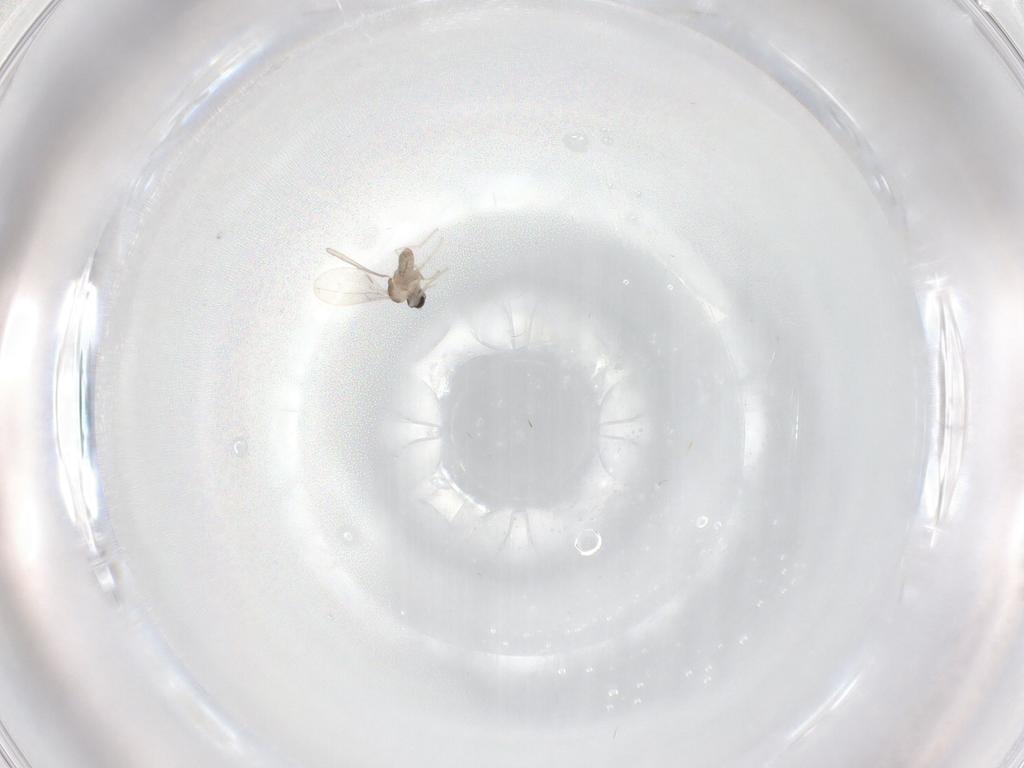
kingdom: Animalia
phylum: Arthropoda
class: Insecta
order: Diptera
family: Cecidomyiidae
